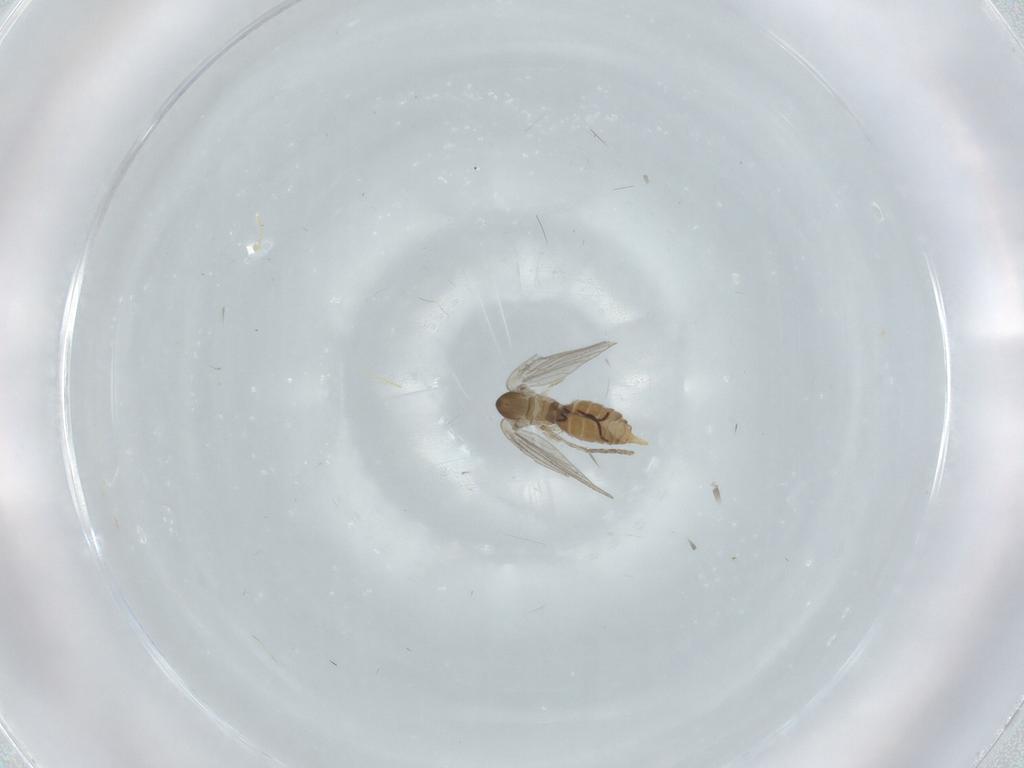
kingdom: Animalia
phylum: Arthropoda
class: Insecta
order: Diptera
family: Psychodidae
